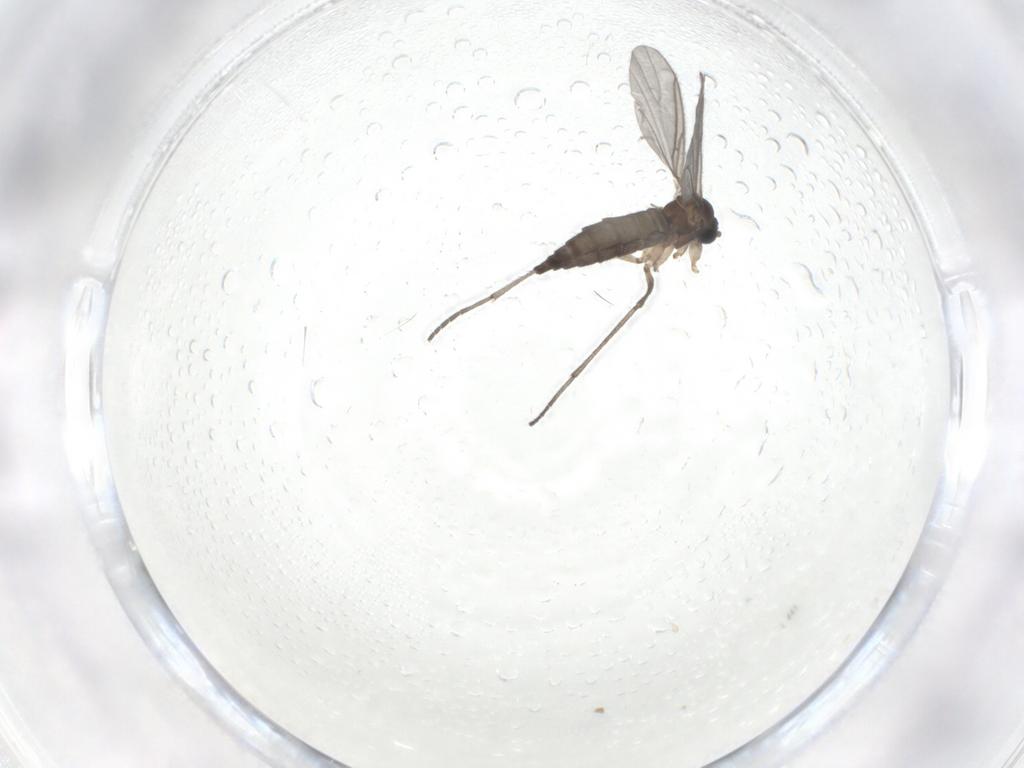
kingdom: Animalia
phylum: Arthropoda
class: Insecta
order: Diptera
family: Sciaridae
